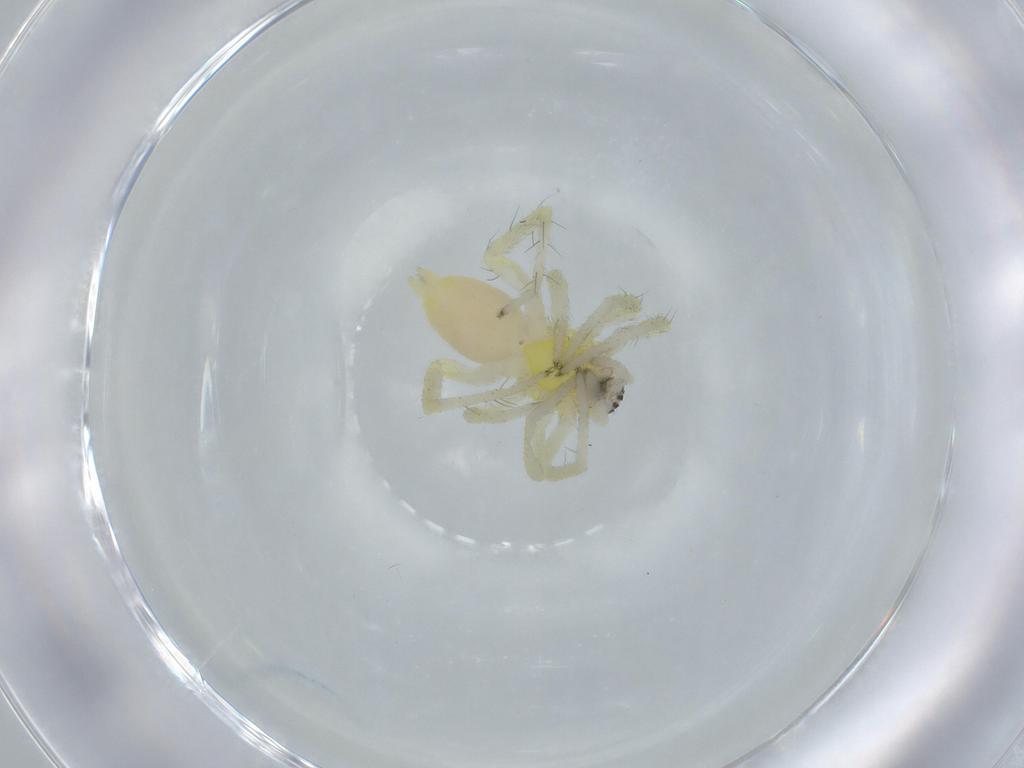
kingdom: Animalia
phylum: Arthropoda
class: Arachnida
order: Araneae
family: Anyphaenidae
